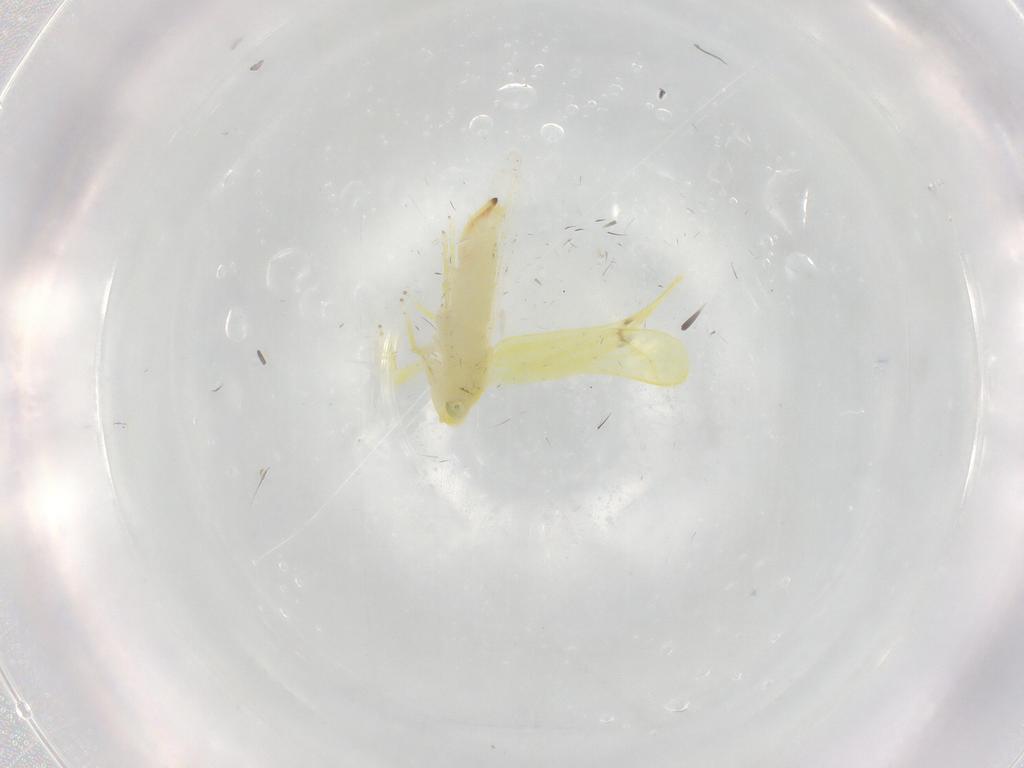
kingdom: Animalia
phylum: Arthropoda
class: Insecta
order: Hemiptera
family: Cicadellidae
